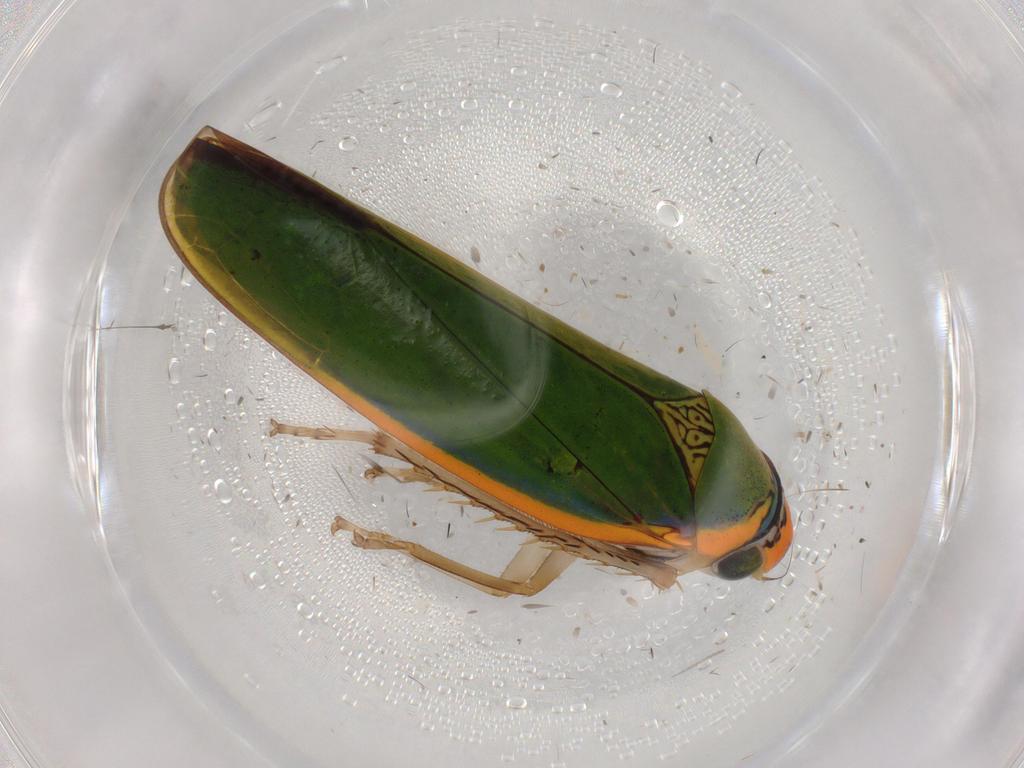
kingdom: Animalia
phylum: Arthropoda
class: Insecta
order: Hemiptera
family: Cicadellidae
